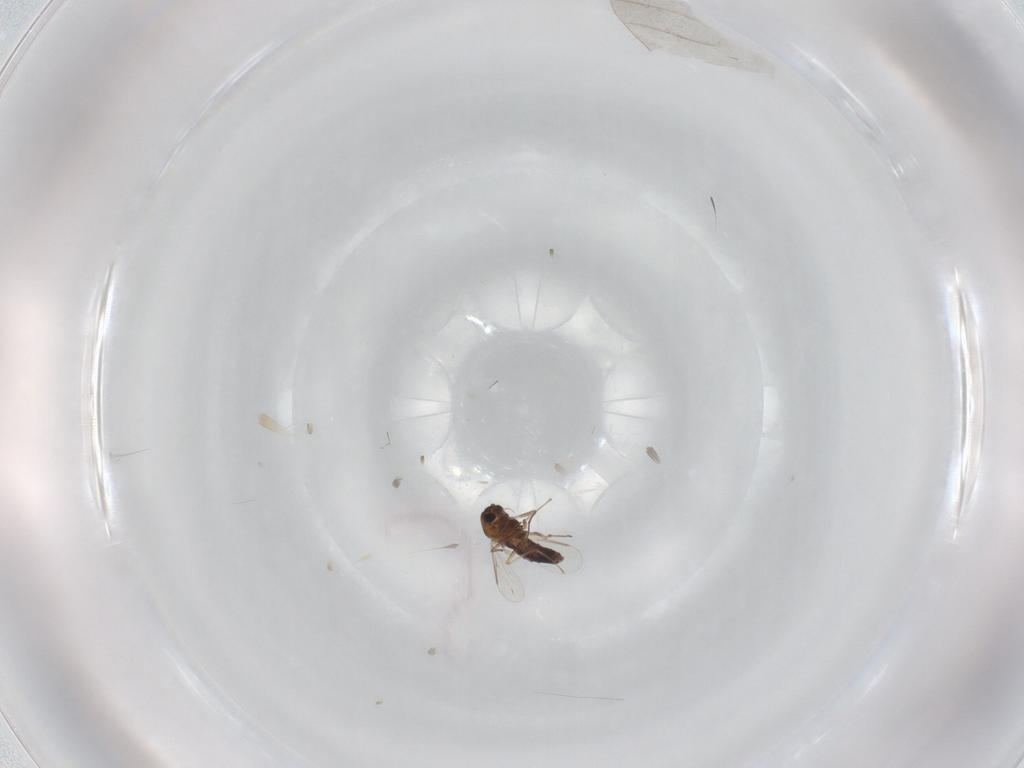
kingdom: Animalia
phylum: Arthropoda
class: Insecta
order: Diptera
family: Chironomidae
